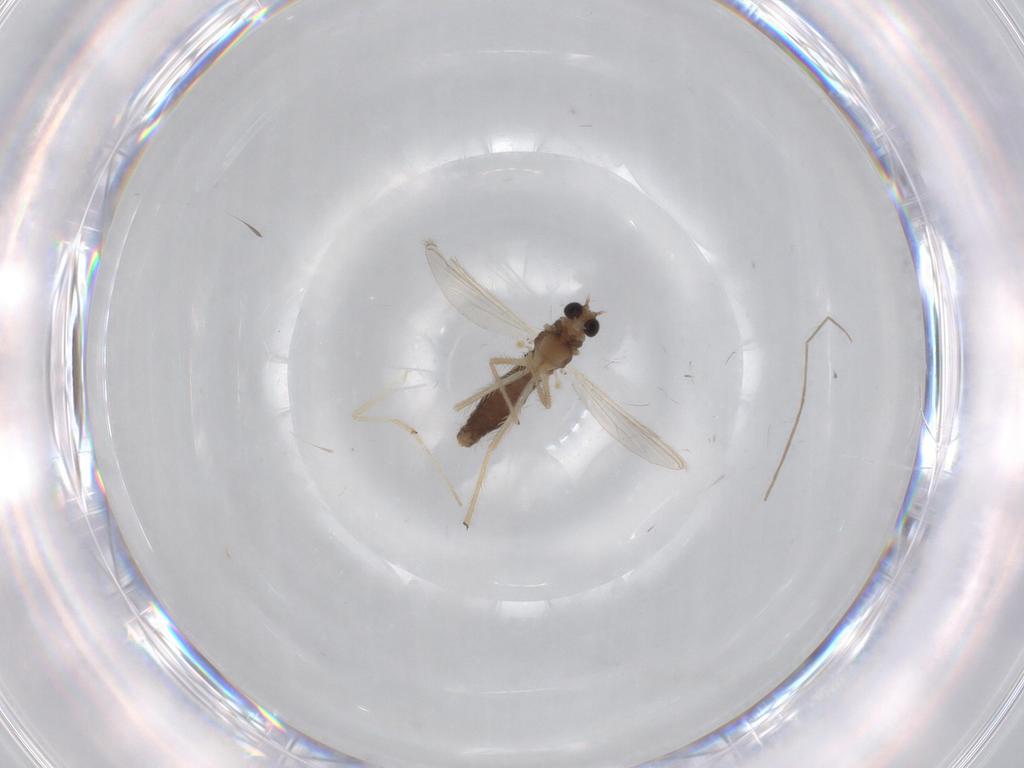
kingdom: Animalia
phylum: Arthropoda
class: Insecta
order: Diptera
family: Chironomidae
